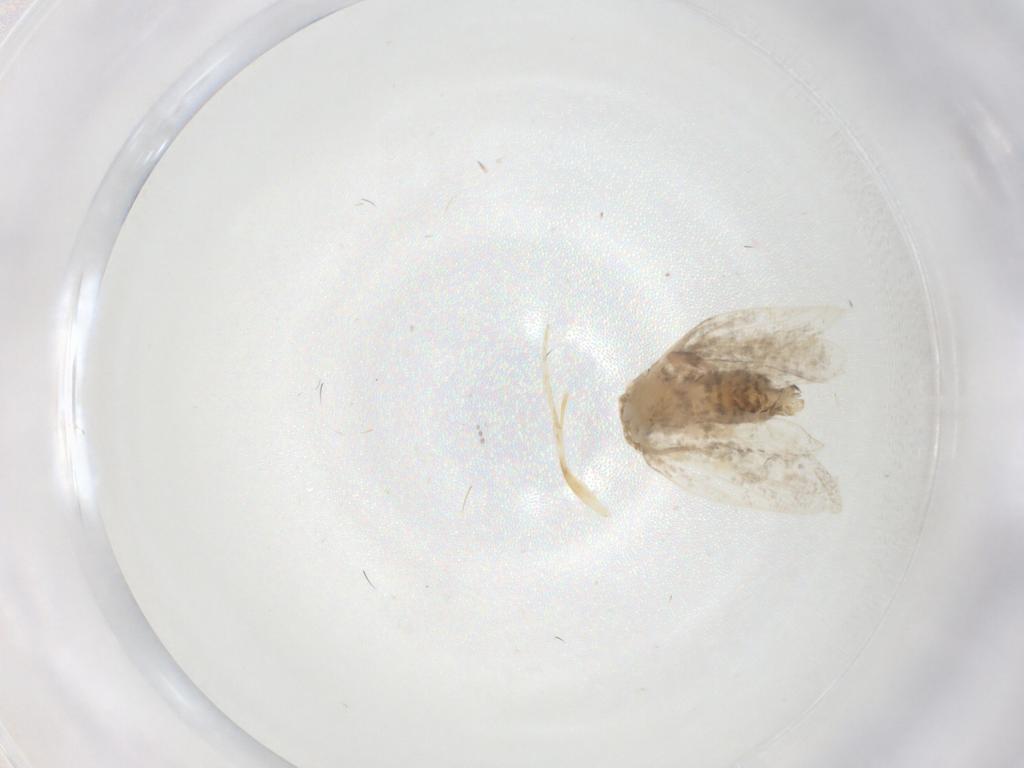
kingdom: Animalia
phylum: Arthropoda
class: Insecta
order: Lepidoptera
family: Psychidae
